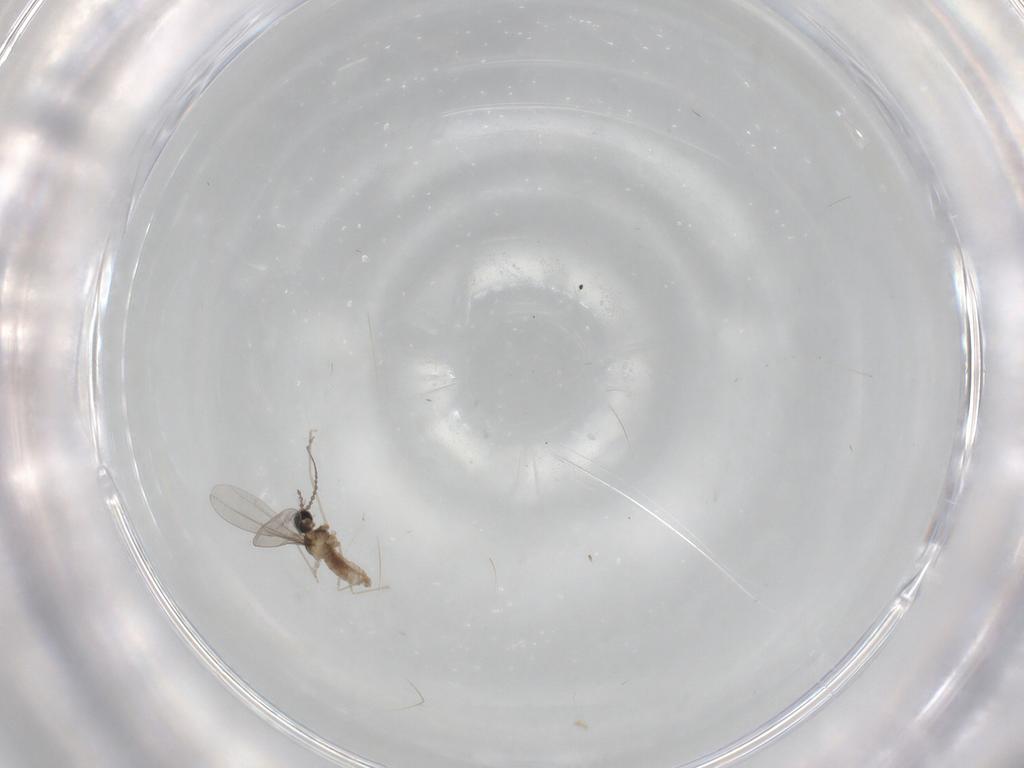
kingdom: Animalia
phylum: Arthropoda
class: Insecta
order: Diptera
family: Cecidomyiidae
